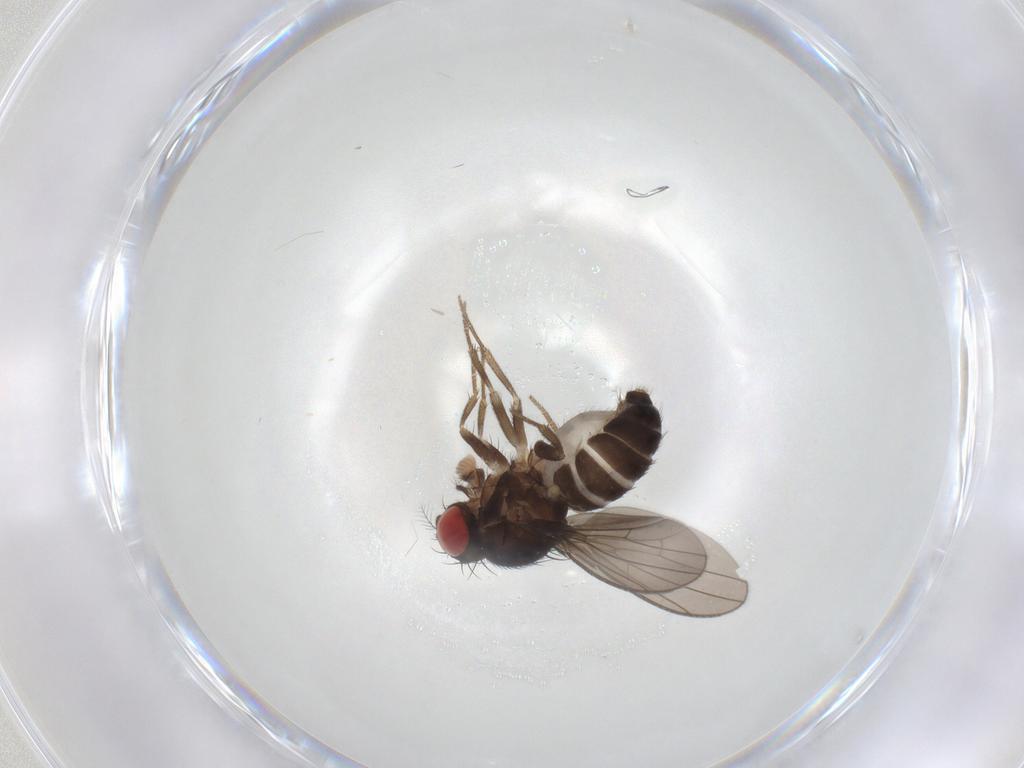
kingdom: Animalia
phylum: Arthropoda
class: Insecta
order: Diptera
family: Drosophilidae
